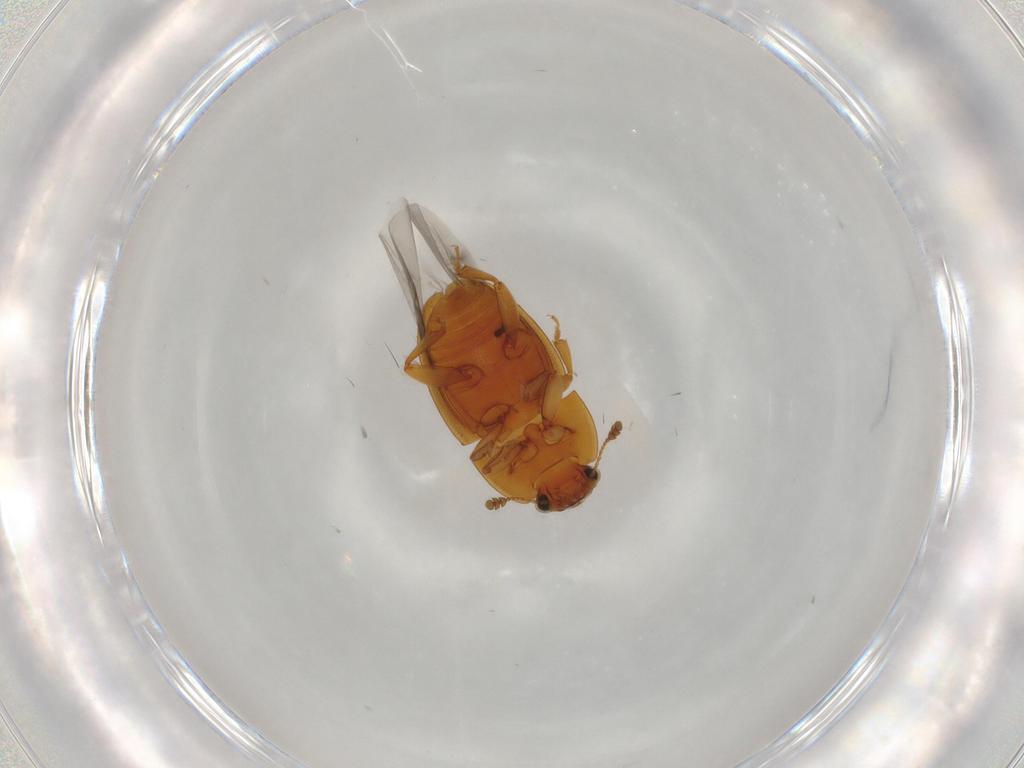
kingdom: Animalia
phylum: Arthropoda
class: Insecta
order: Coleoptera
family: Nitidulidae
